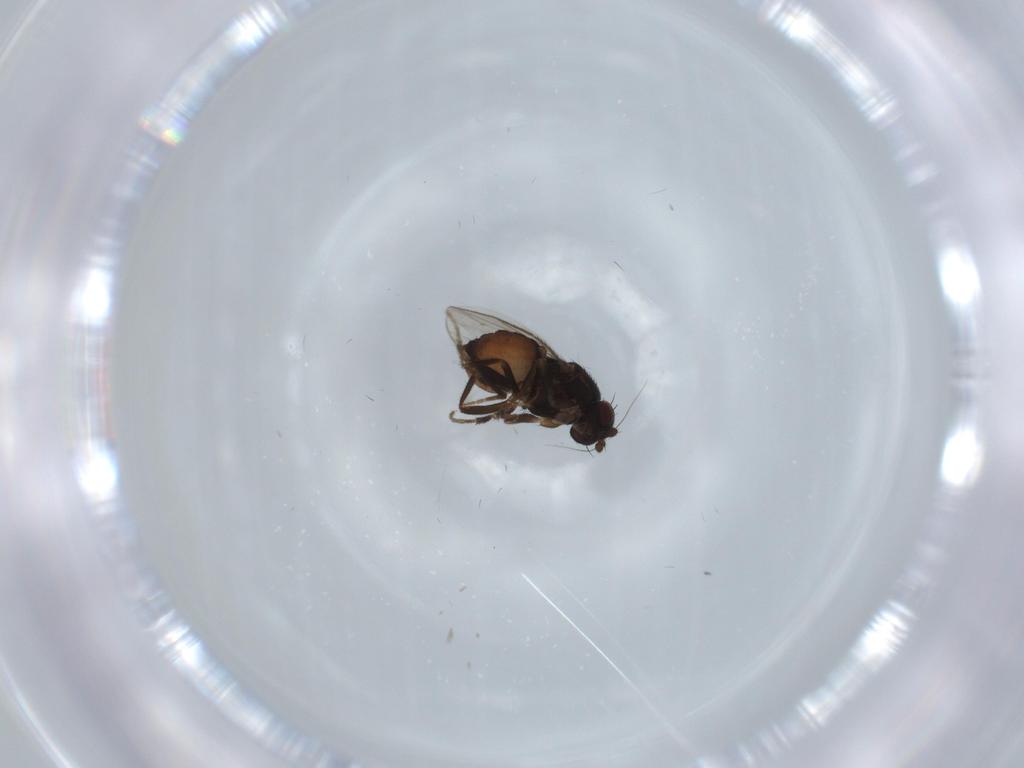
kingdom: Animalia
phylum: Arthropoda
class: Insecta
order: Diptera
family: Sphaeroceridae
